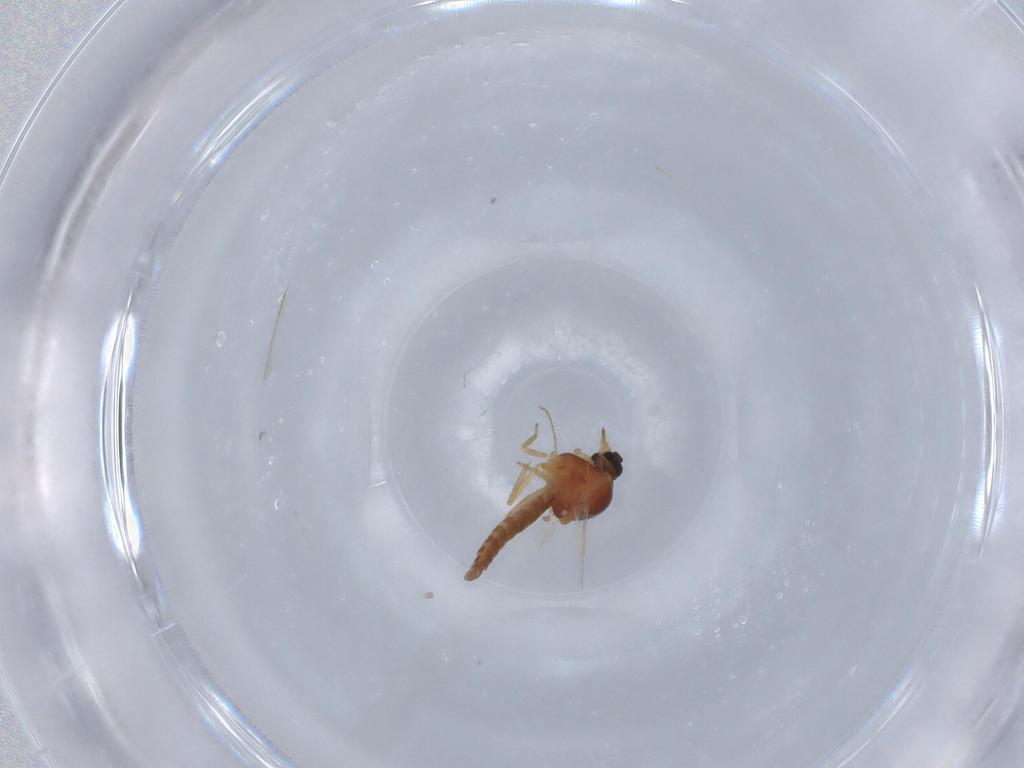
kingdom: Animalia
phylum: Arthropoda
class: Insecta
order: Diptera
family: Ceratopogonidae
